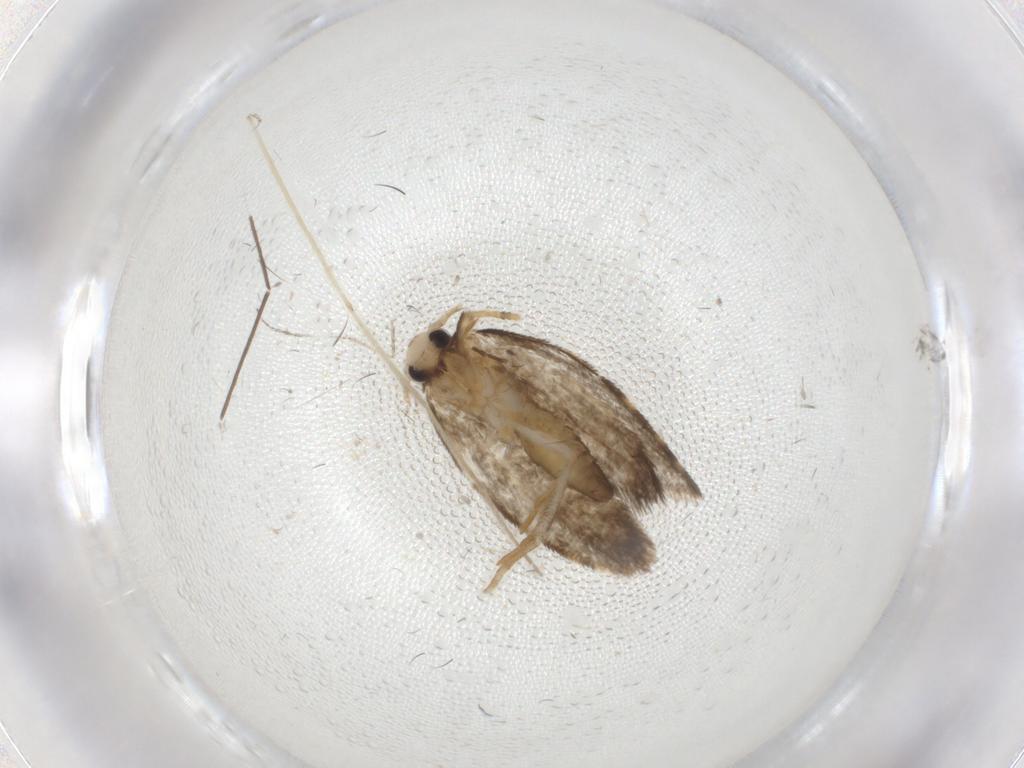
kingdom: Animalia
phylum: Arthropoda
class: Insecta
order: Lepidoptera
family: Psychidae
